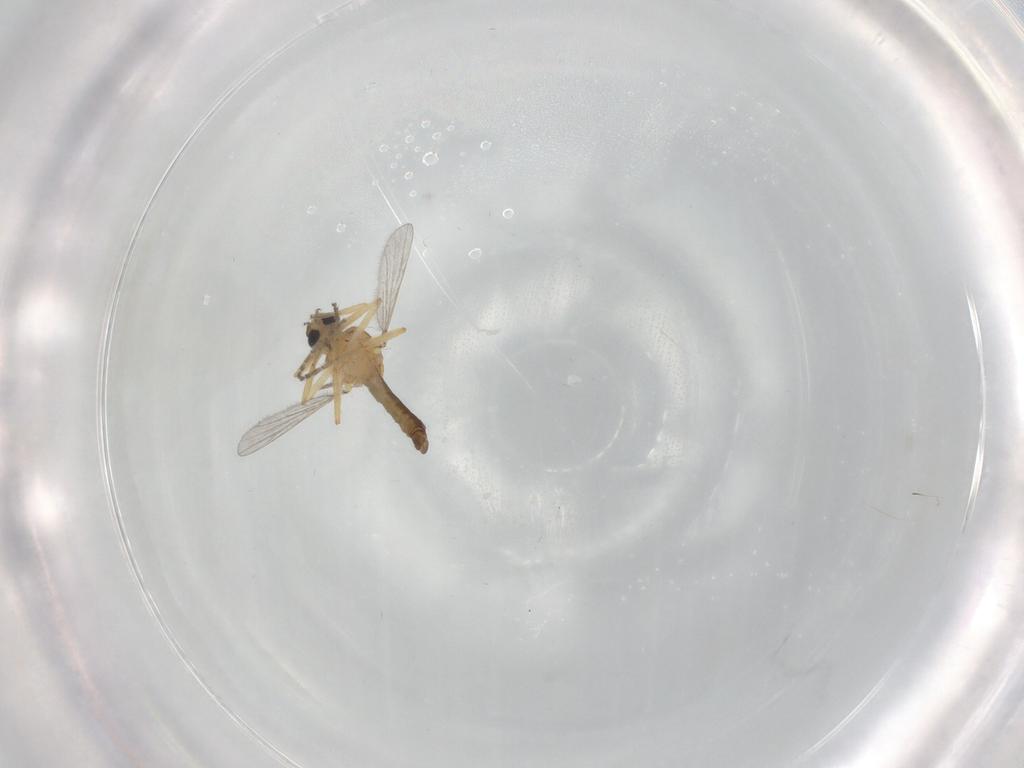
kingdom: Animalia
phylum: Arthropoda
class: Insecta
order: Diptera
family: Ceratopogonidae
